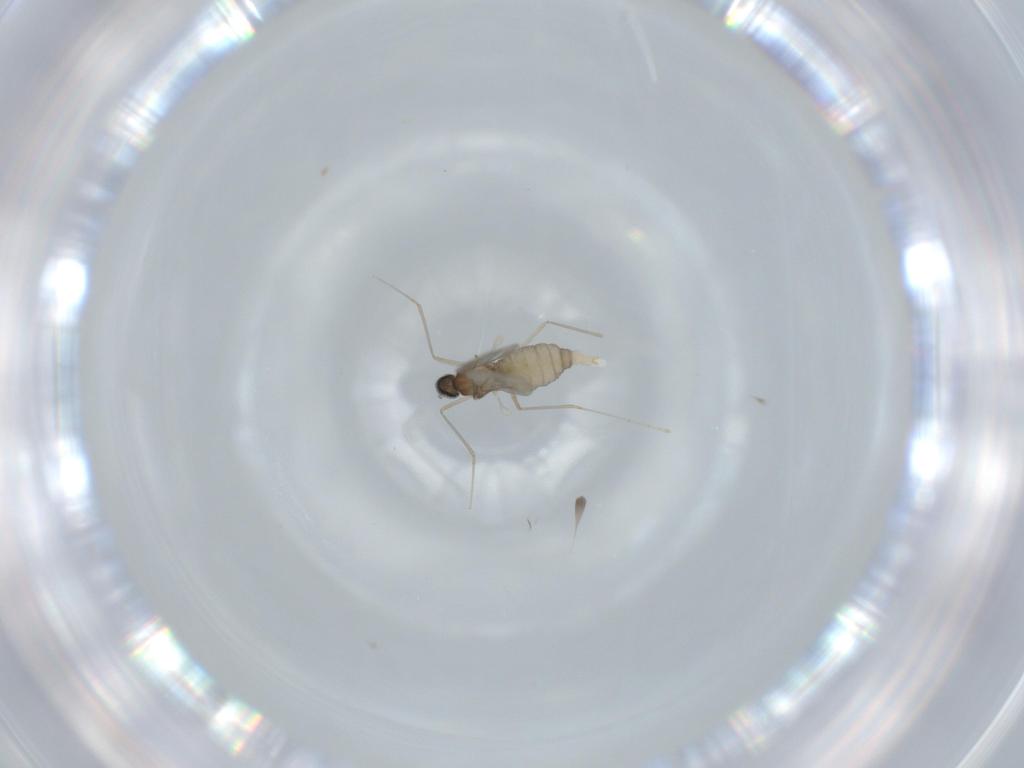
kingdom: Animalia
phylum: Arthropoda
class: Insecta
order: Diptera
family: Cecidomyiidae
